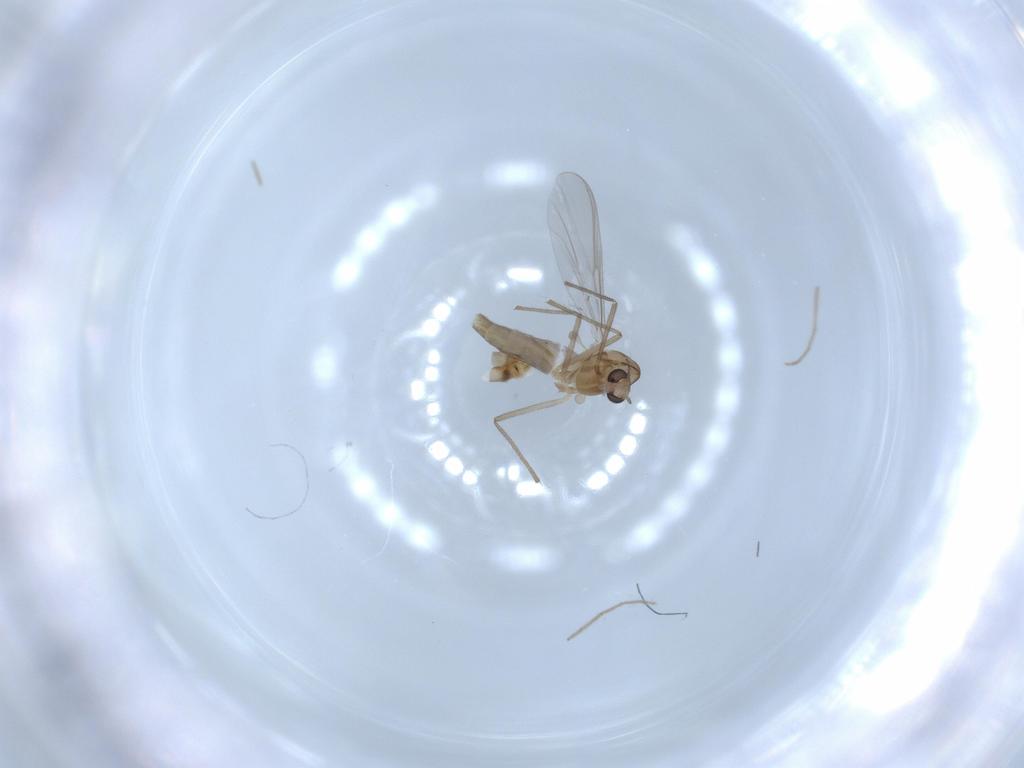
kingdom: Animalia
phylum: Arthropoda
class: Insecta
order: Diptera
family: Chironomidae
